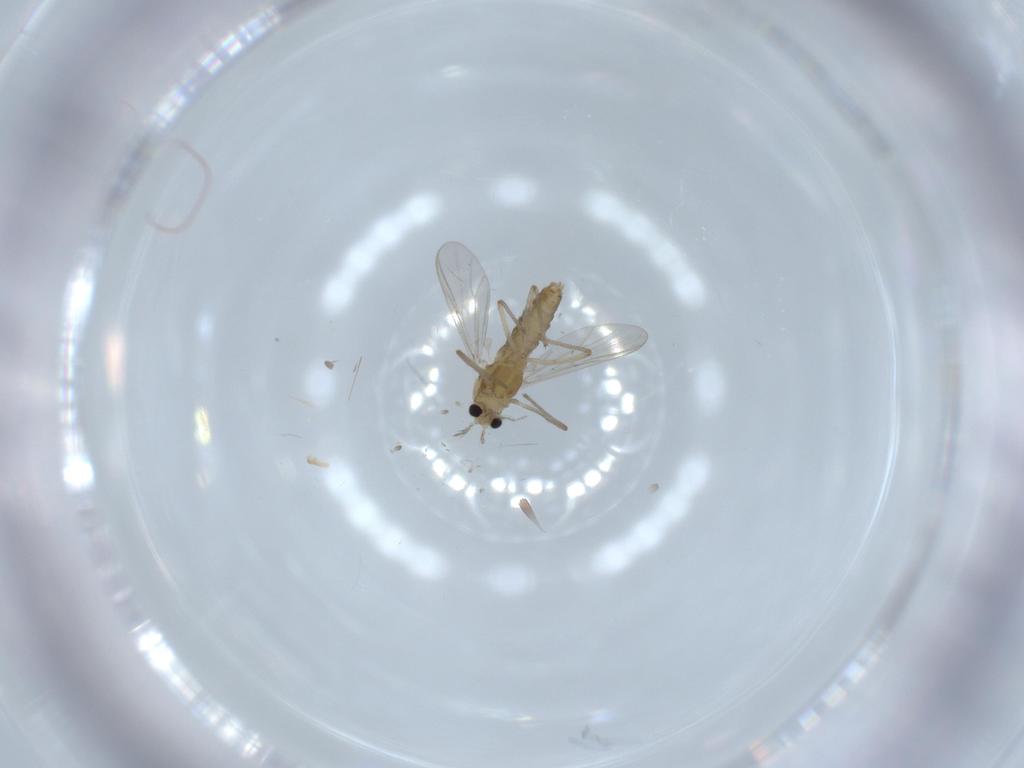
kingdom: Animalia
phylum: Arthropoda
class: Insecta
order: Diptera
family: Chironomidae
